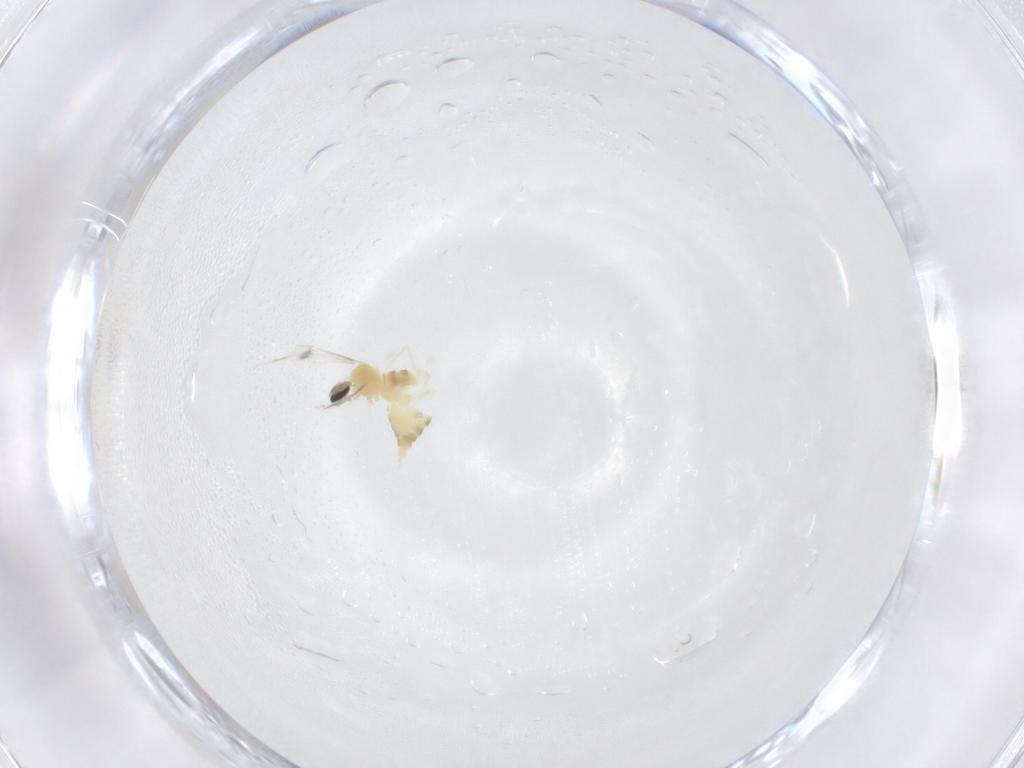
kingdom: Animalia
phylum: Arthropoda
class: Insecta
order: Diptera
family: Cecidomyiidae
